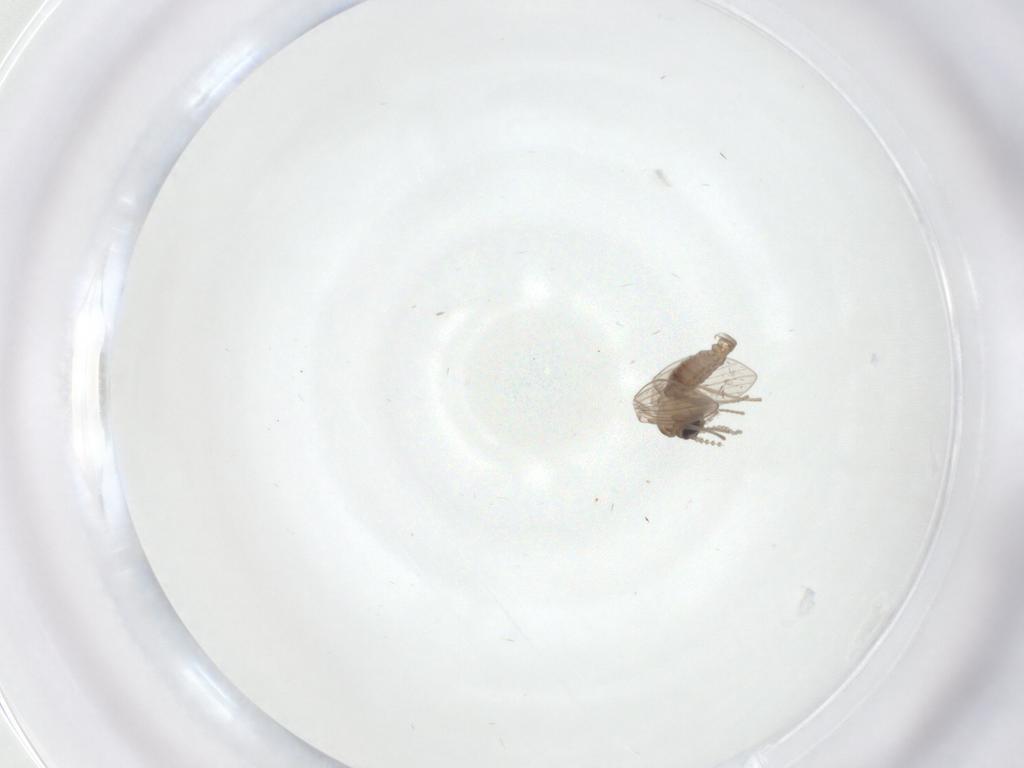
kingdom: Animalia
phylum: Arthropoda
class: Insecta
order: Diptera
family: Psychodidae
